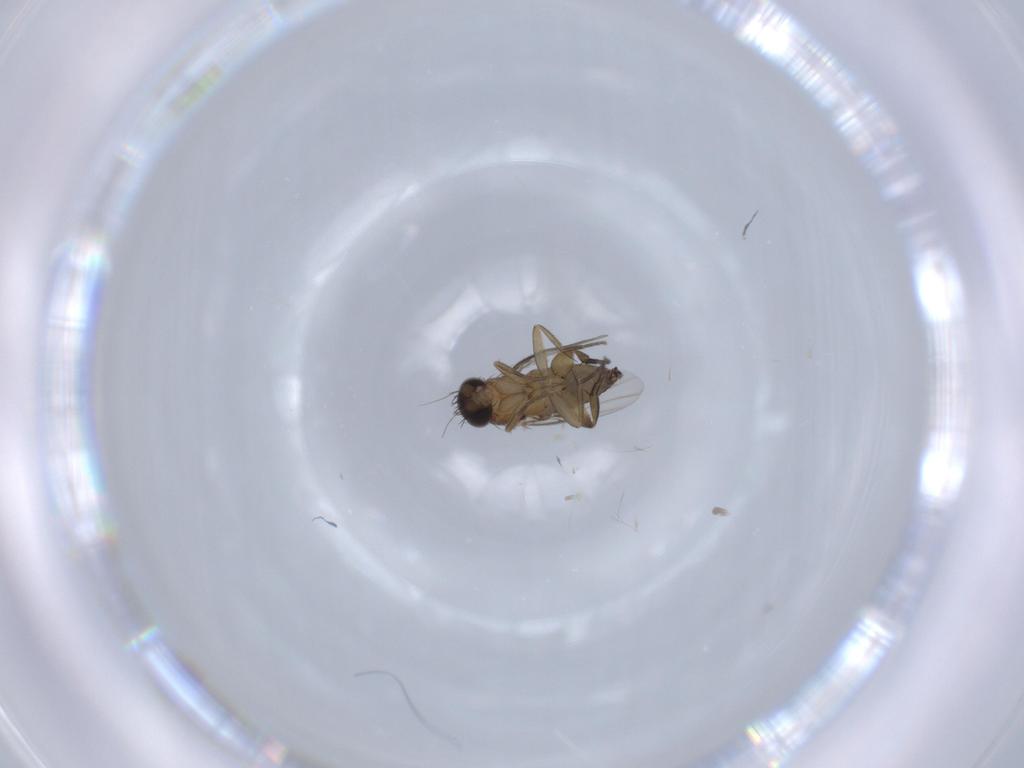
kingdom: Animalia
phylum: Arthropoda
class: Insecta
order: Diptera
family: Phoridae
